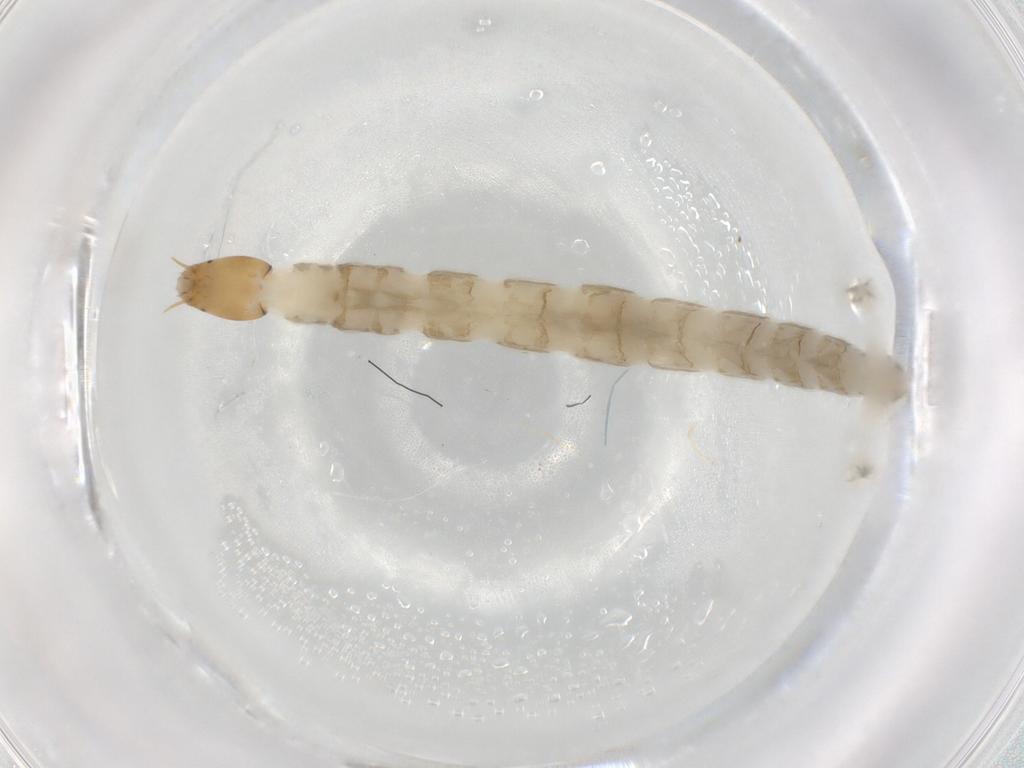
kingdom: Animalia
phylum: Arthropoda
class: Insecta
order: Diptera
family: Chironomidae
